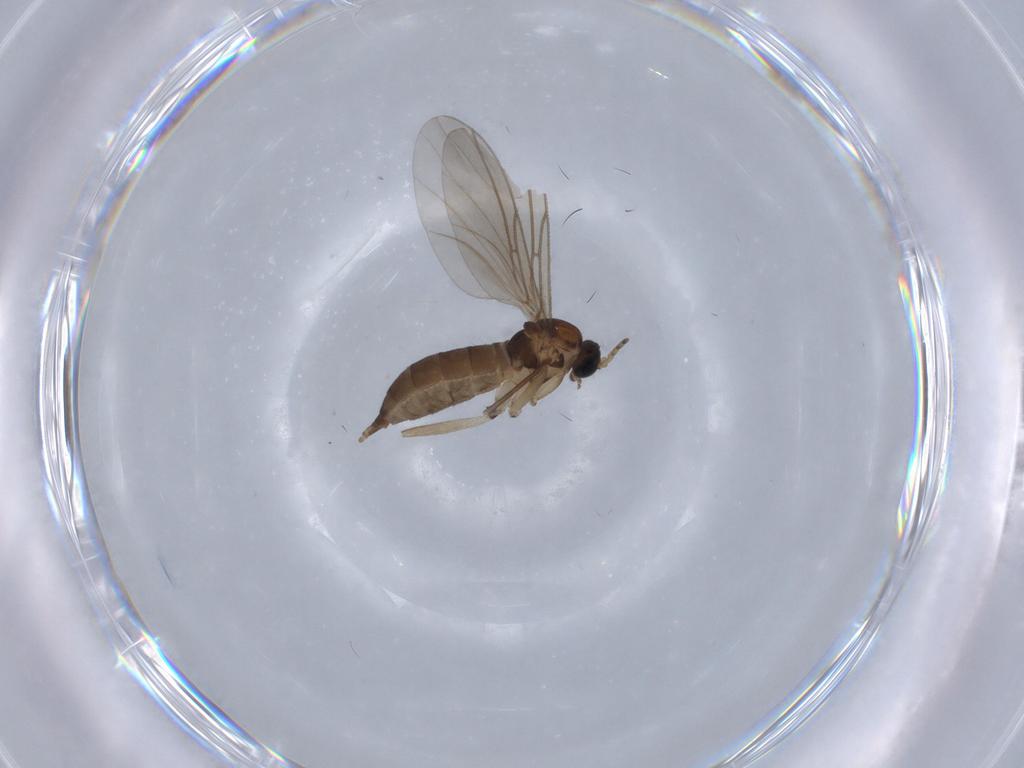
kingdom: Animalia
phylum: Arthropoda
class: Insecta
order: Diptera
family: Sciaridae
